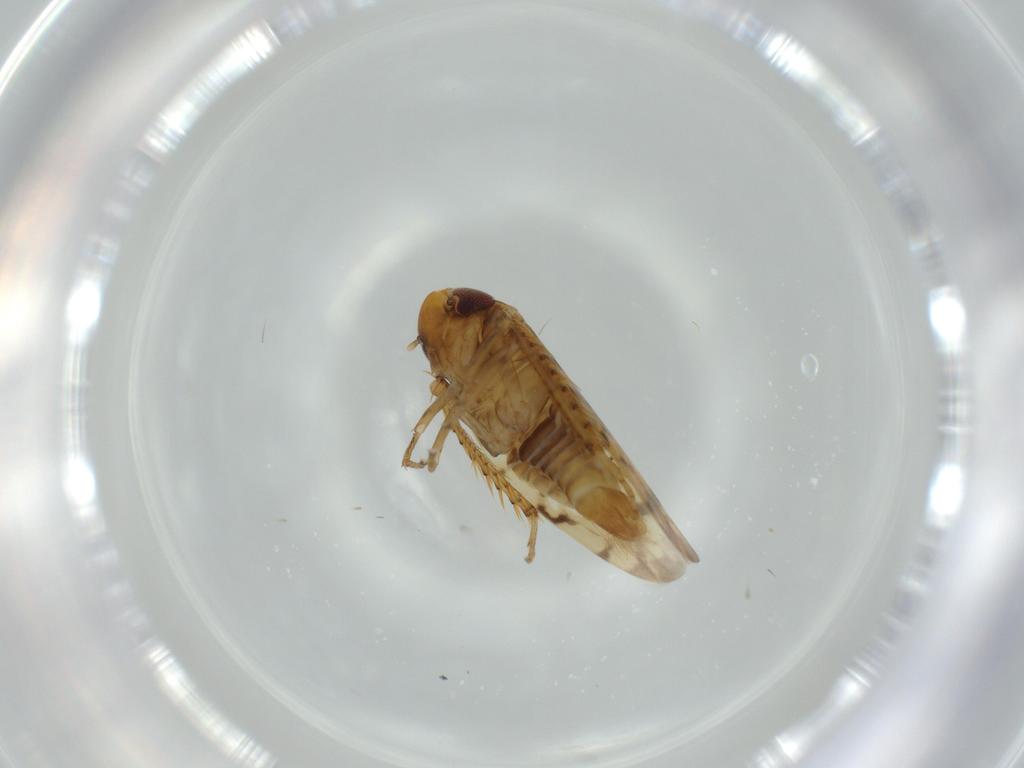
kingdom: Animalia
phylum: Arthropoda
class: Insecta
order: Hemiptera
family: Cicadellidae
